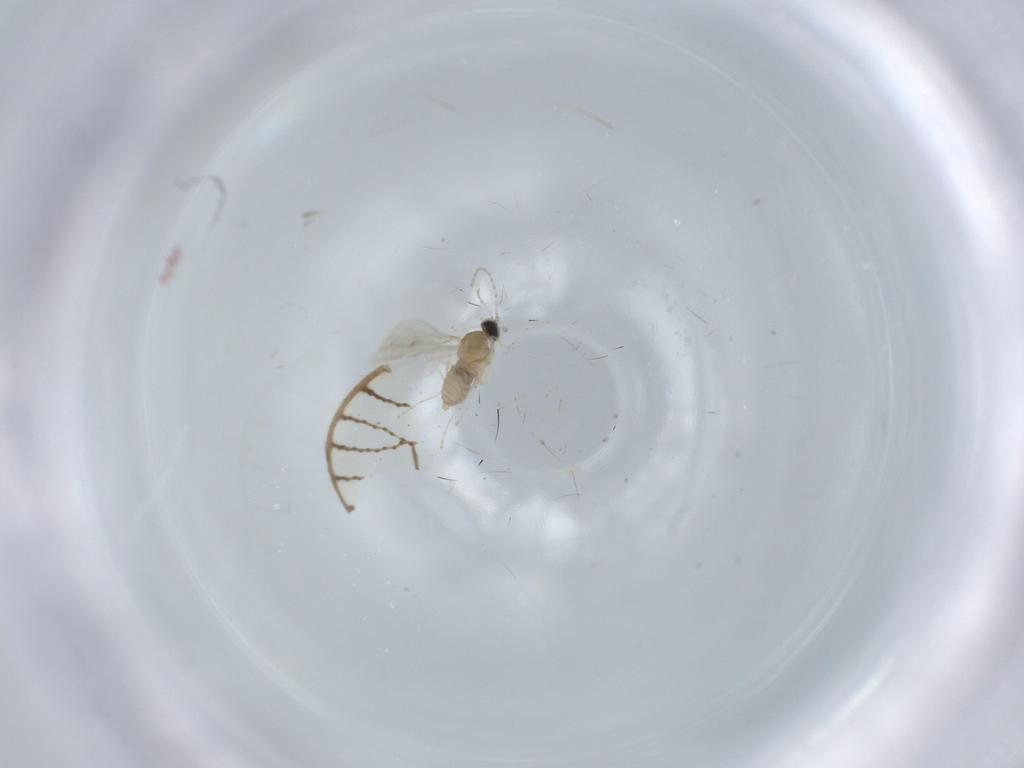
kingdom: Animalia
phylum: Arthropoda
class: Insecta
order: Diptera
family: Cecidomyiidae
